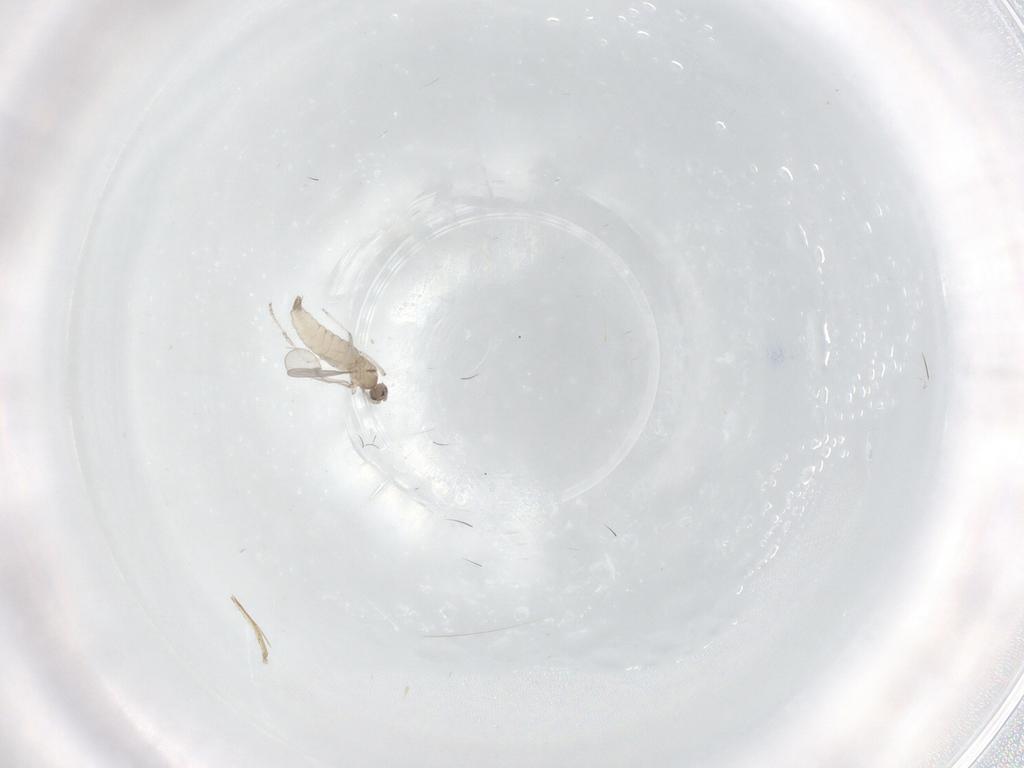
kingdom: Animalia
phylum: Arthropoda
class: Insecta
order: Diptera
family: Cecidomyiidae
